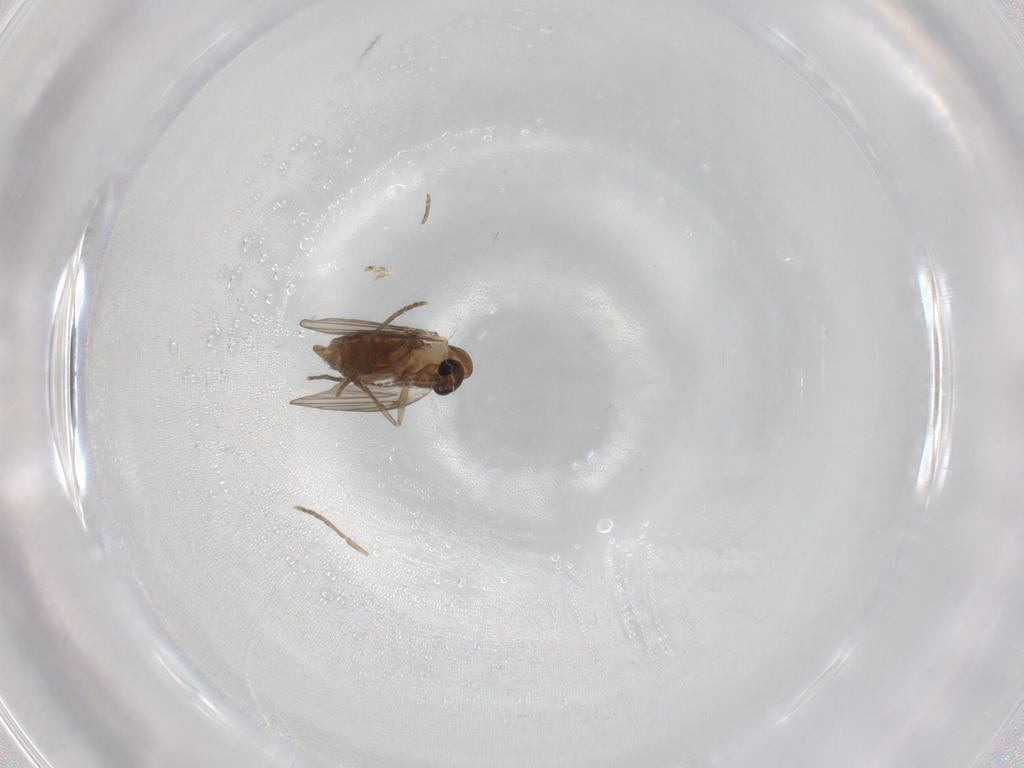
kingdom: Animalia
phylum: Arthropoda
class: Insecta
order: Diptera
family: Psychodidae
